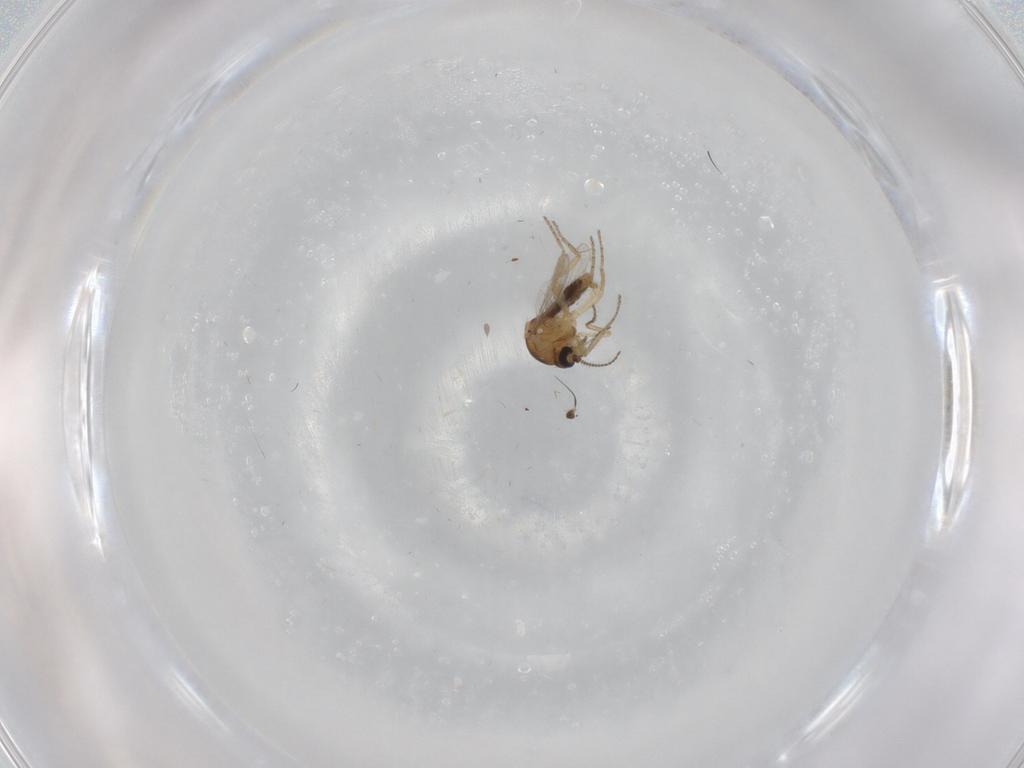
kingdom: Animalia
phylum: Arthropoda
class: Insecta
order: Diptera
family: Ceratopogonidae
